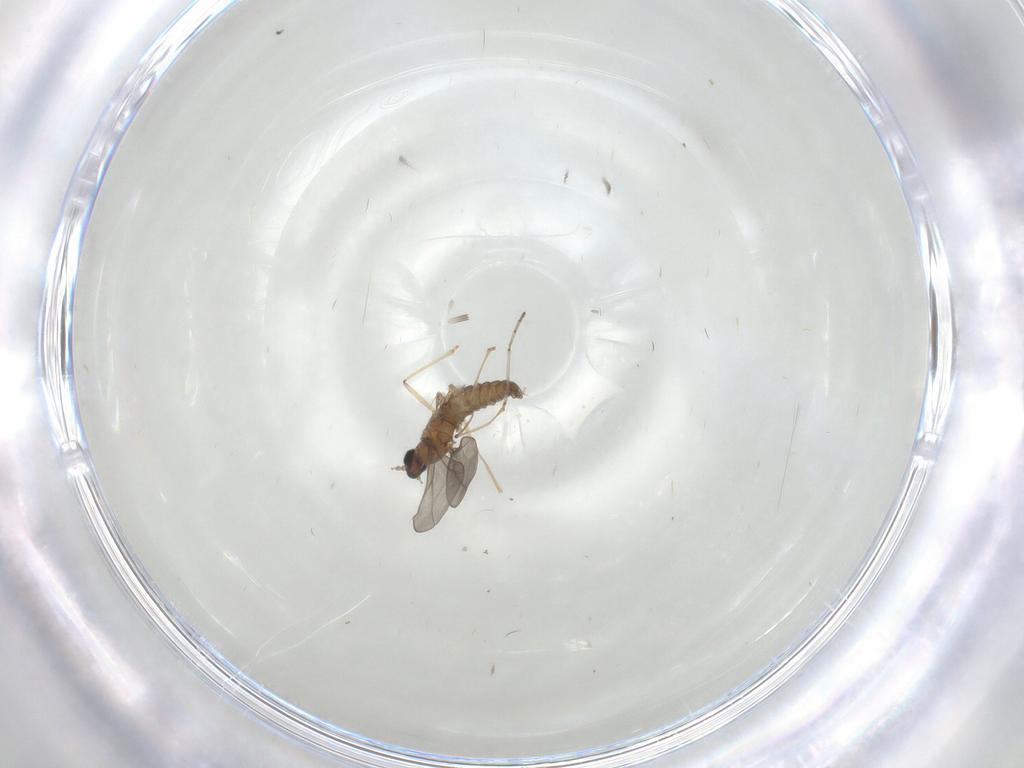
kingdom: Animalia
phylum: Arthropoda
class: Insecta
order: Diptera
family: Cecidomyiidae
